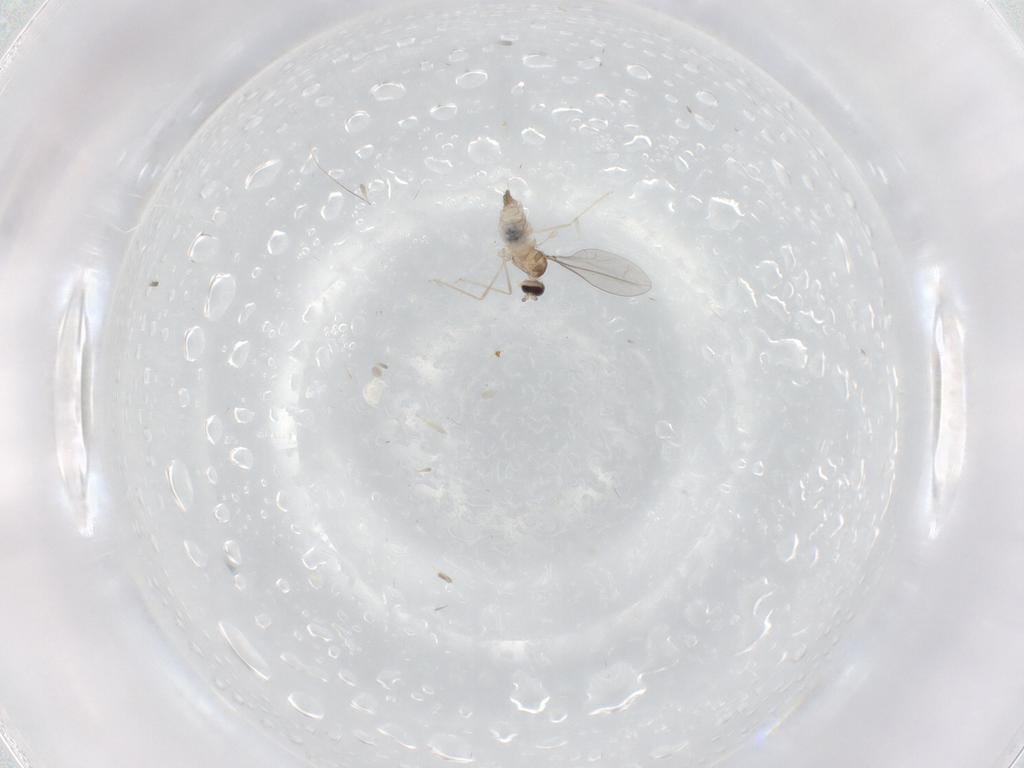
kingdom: Animalia
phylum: Arthropoda
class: Insecta
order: Diptera
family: Cecidomyiidae
